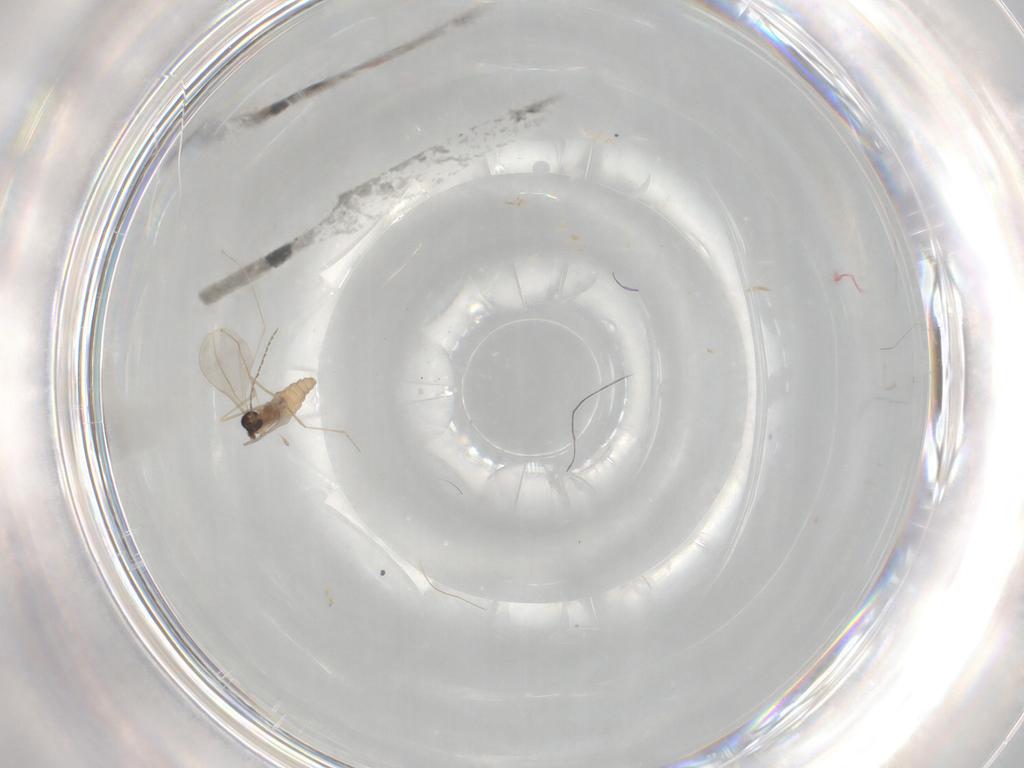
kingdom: Animalia
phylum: Arthropoda
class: Insecta
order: Diptera
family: Cecidomyiidae
